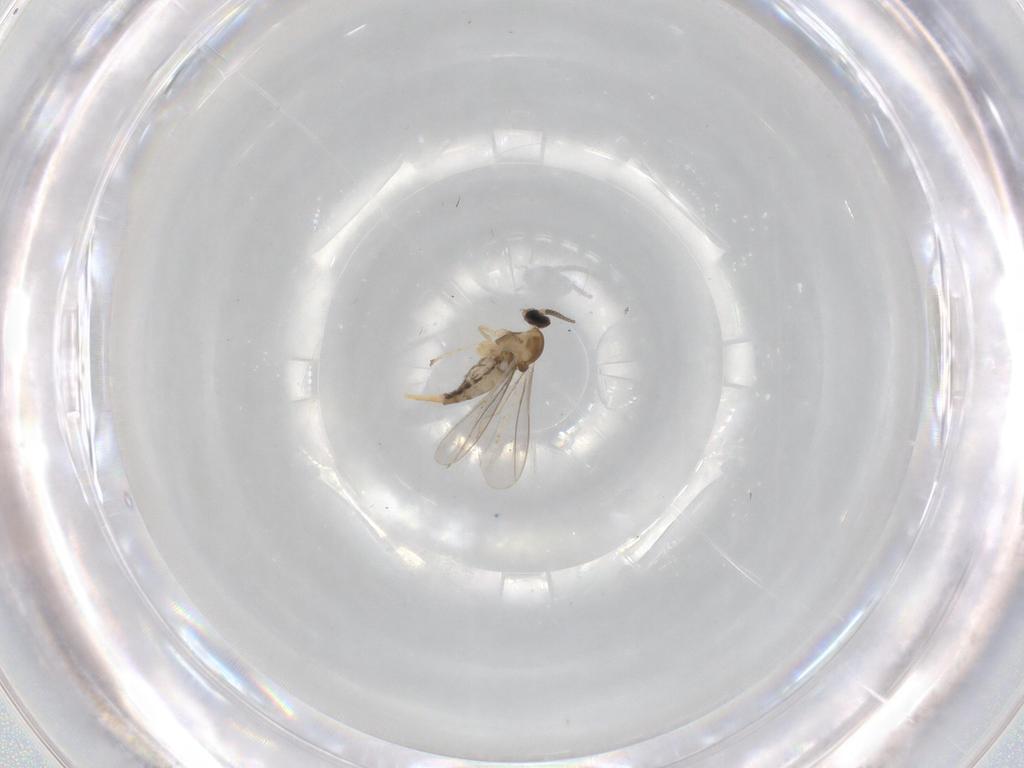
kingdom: Animalia
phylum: Arthropoda
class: Insecta
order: Diptera
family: Cecidomyiidae
